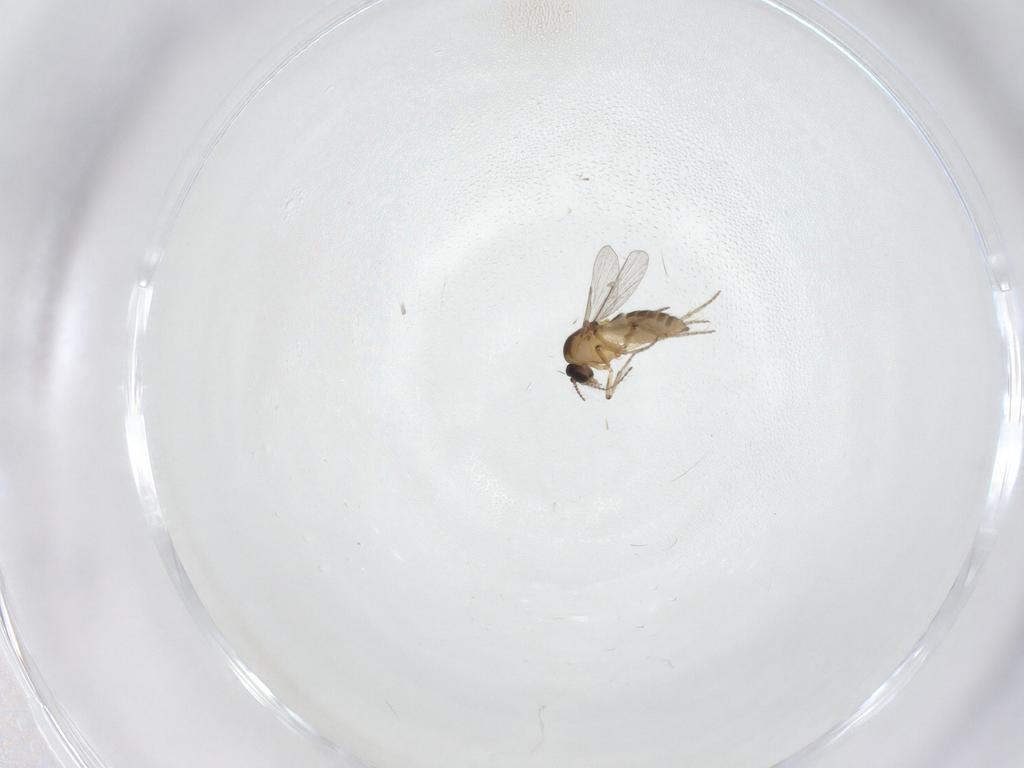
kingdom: Animalia
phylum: Arthropoda
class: Insecta
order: Diptera
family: Ceratopogonidae
